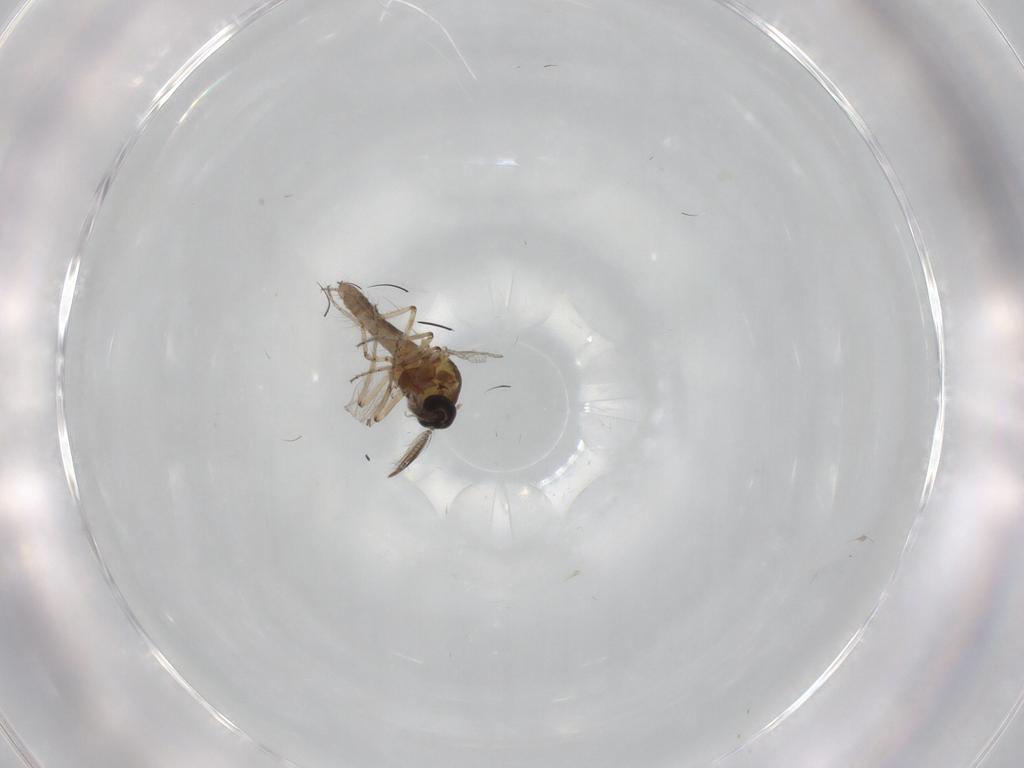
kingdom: Animalia
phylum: Arthropoda
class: Insecta
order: Diptera
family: Ceratopogonidae
